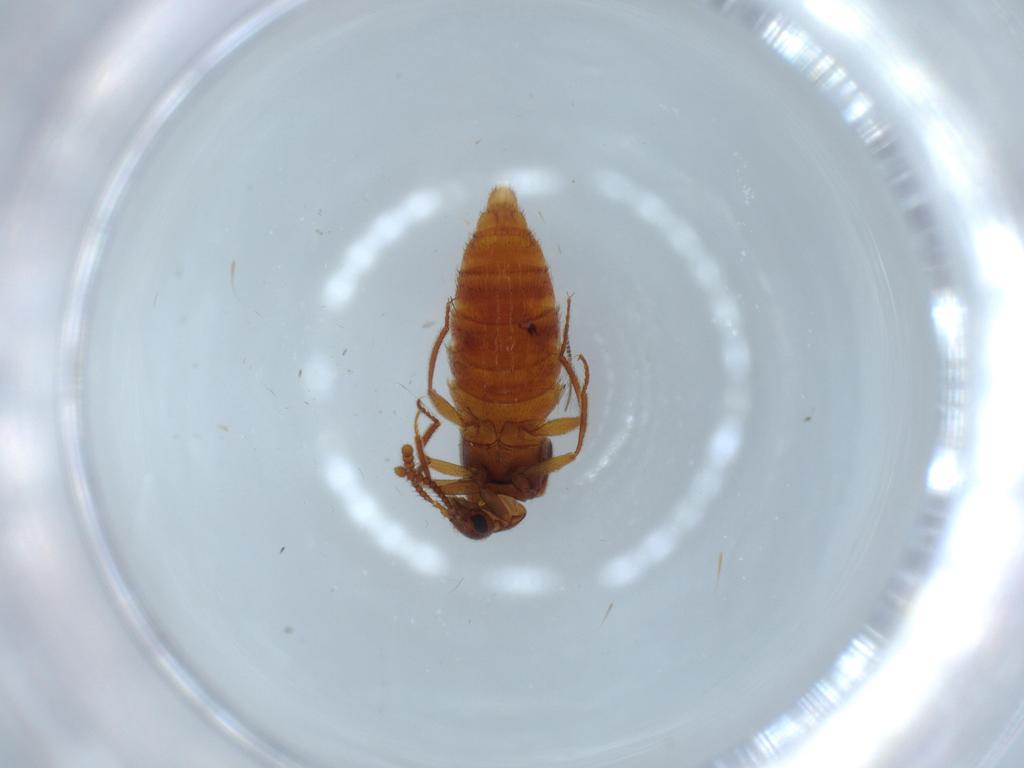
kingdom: Animalia
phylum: Arthropoda
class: Insecta
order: Coleoptera
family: Staphylinidae
